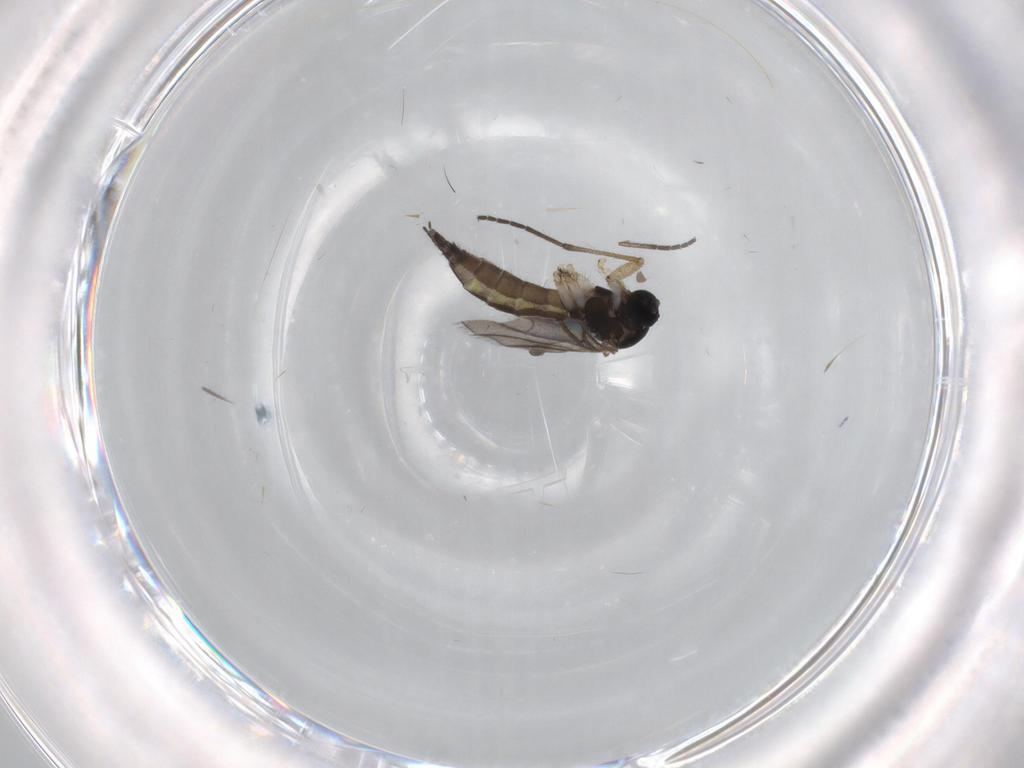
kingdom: Animalia
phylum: Arthropoda
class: Insecta
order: Diptera
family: Sciaridae
